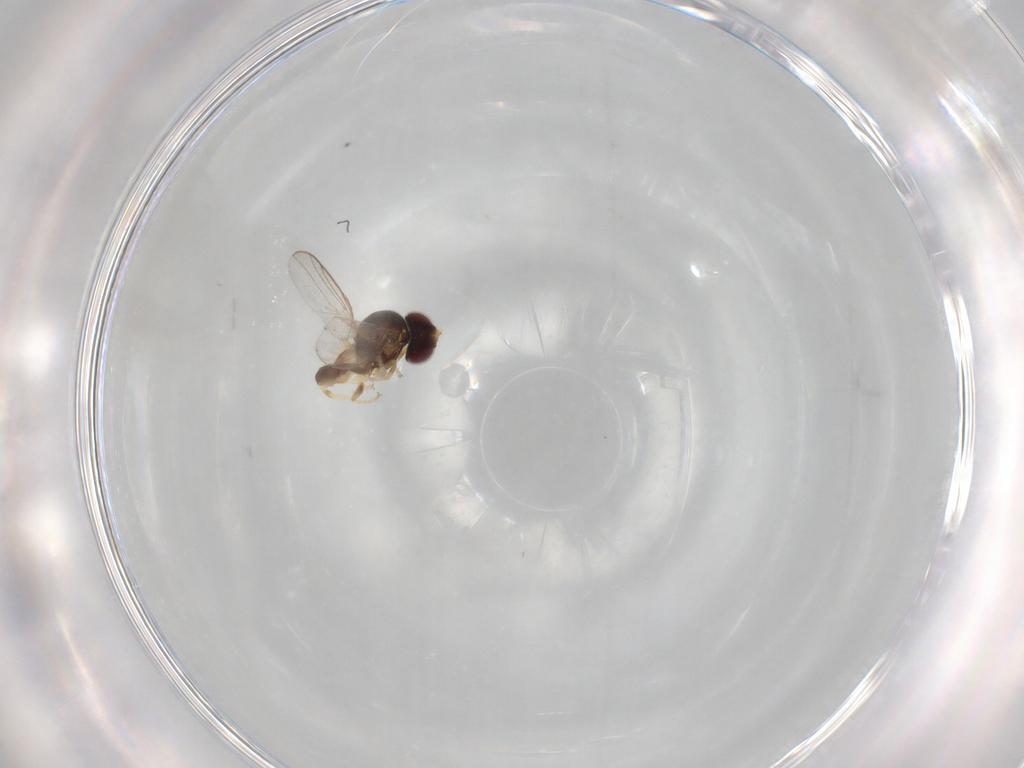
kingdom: Animalia
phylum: Arthropoda
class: Insecta
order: Diptera
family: Chloropidae
